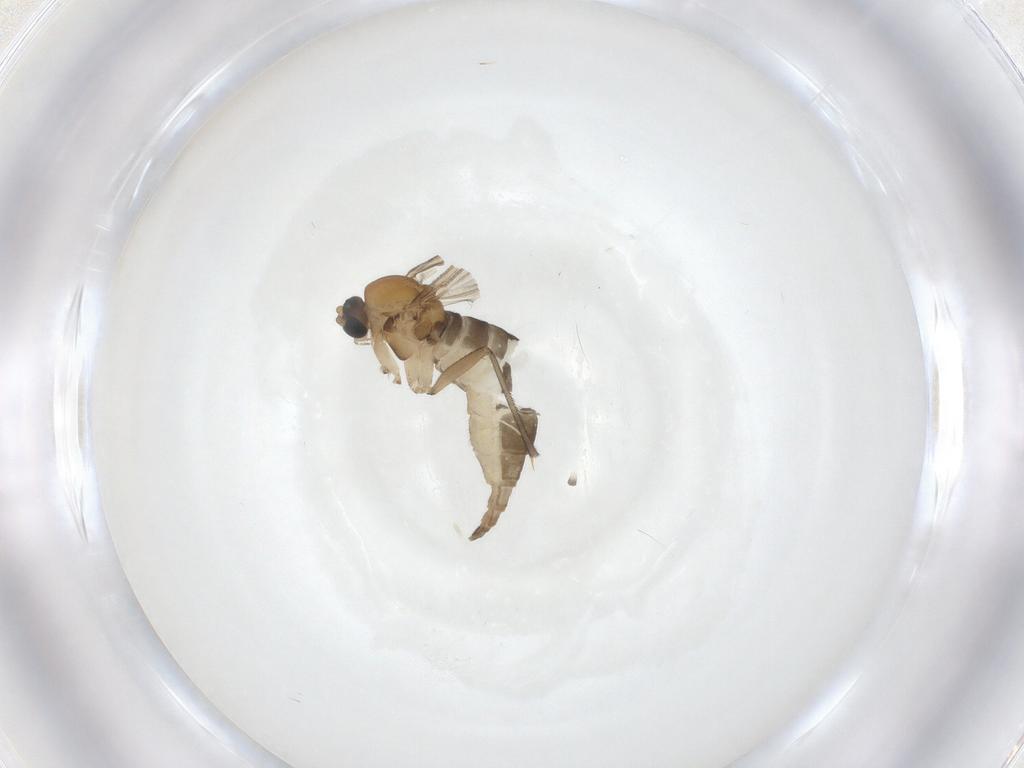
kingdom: Animalia
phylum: Arthropoda
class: Insecta
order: Diptera
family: Sciaridae
